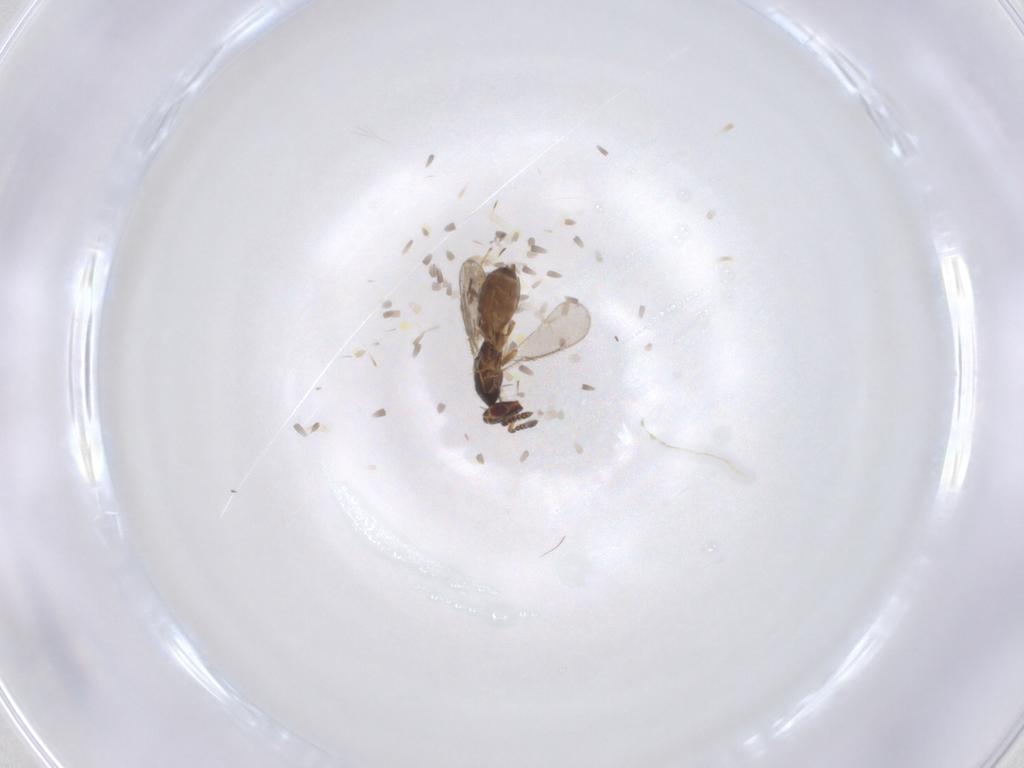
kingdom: Animalia
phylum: Arthropoda
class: Insecta
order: Hymenoptera
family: Eulophidae
